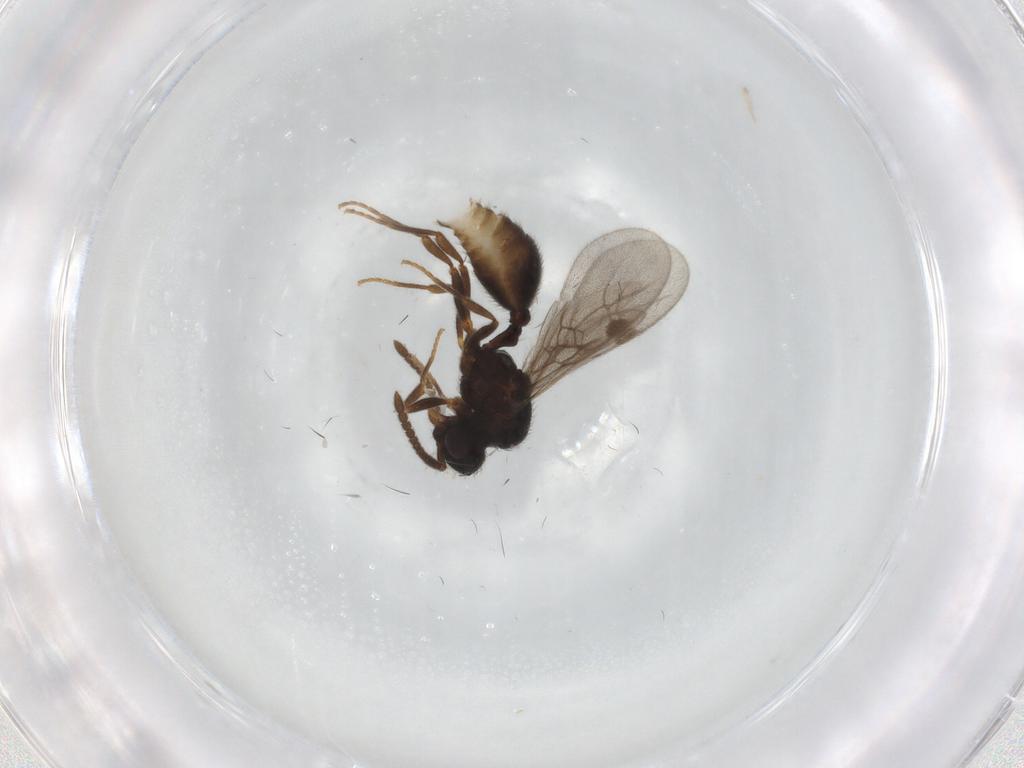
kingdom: Animalia
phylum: Arthropoda
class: Insecta
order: Hymenoptera
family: Formicidae
